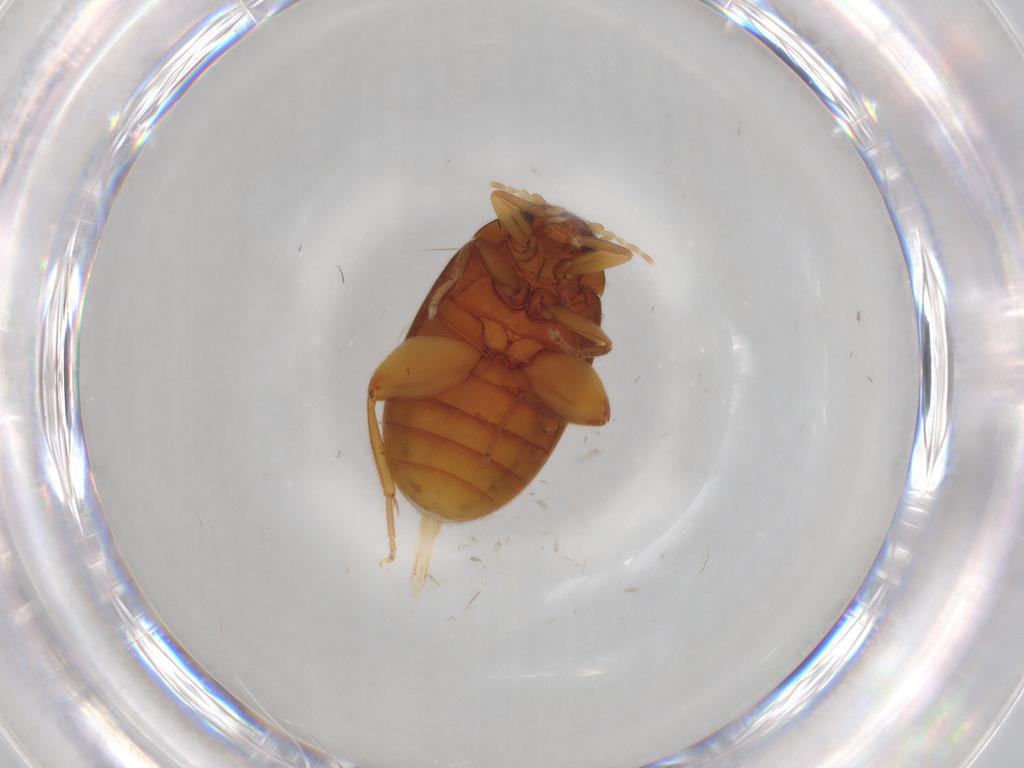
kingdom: Animalia
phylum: Arthropoda
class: Insecta
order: Coleoptera
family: Scirtidae
